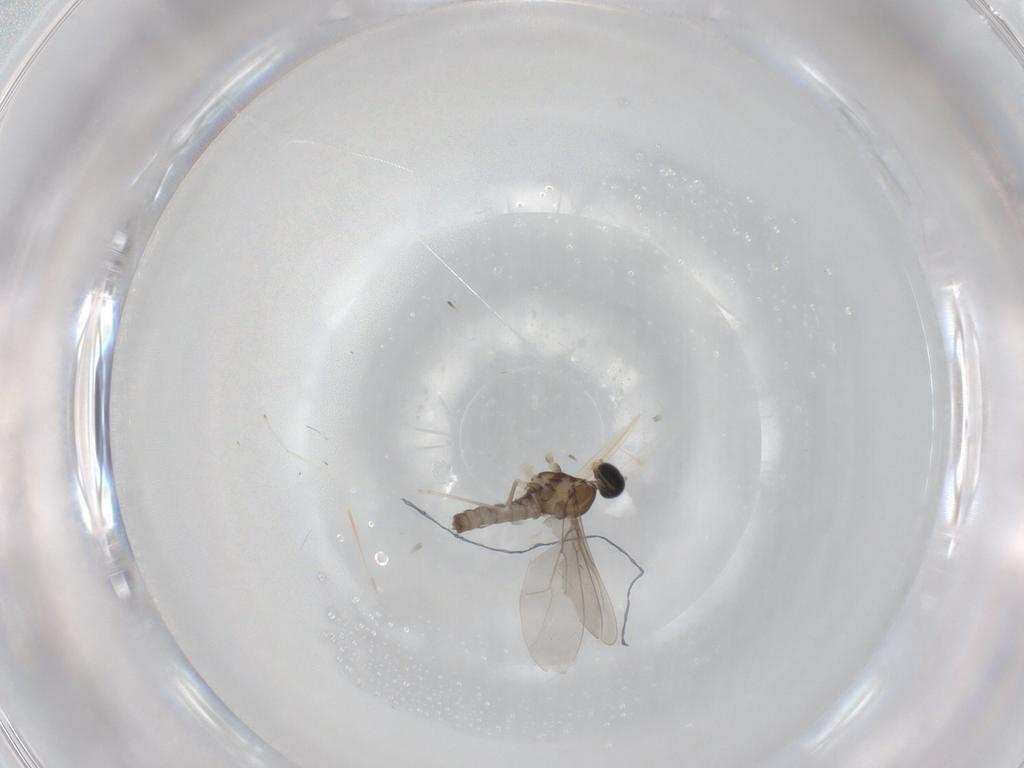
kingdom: Animalia
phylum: Arthropoda
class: Insecta
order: Diptera
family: Cecidomyiidae
